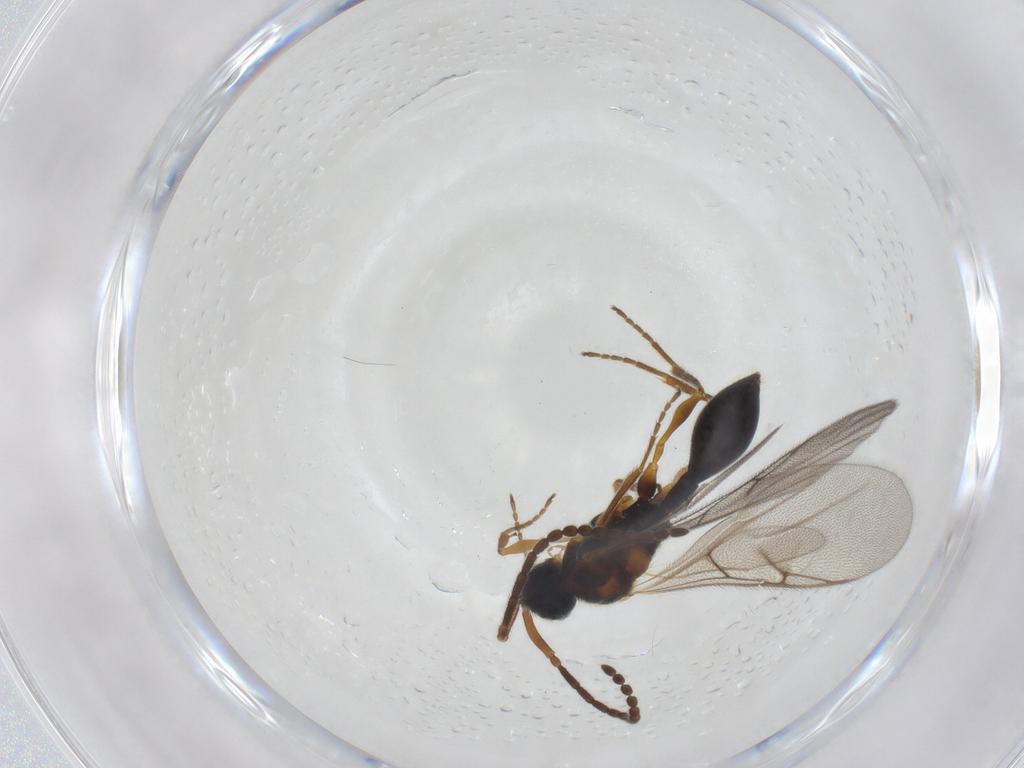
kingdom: Animalia
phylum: Arthropoda
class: Insecta
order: Hymenoptera
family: Diapriidae
